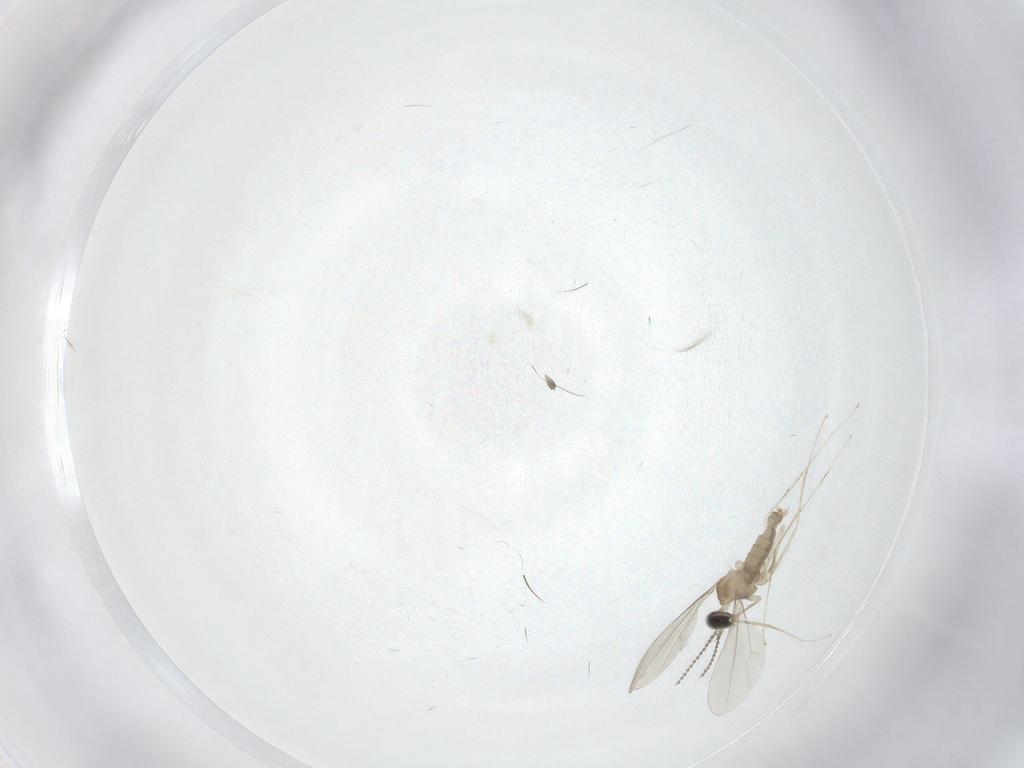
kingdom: Animalia
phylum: Arthropoda
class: Insecta
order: Diptera
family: Cecidomyiidae
